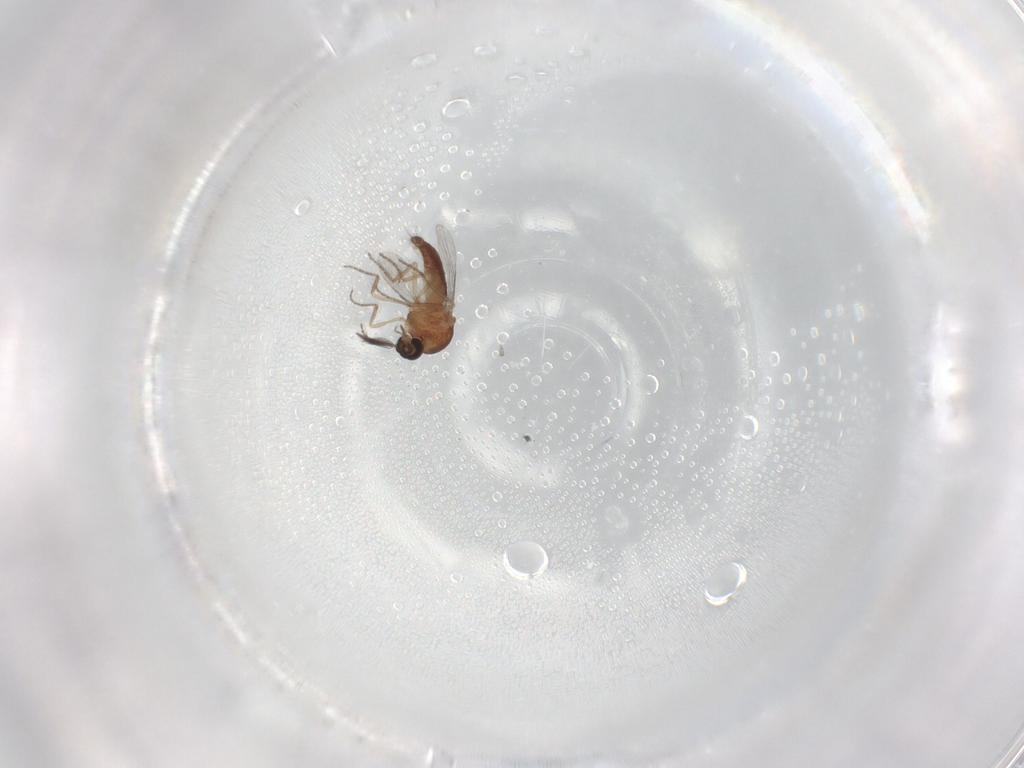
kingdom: Animalia
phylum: Arthropoda
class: Insecta
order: Diptera
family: Ceratopogonidae
